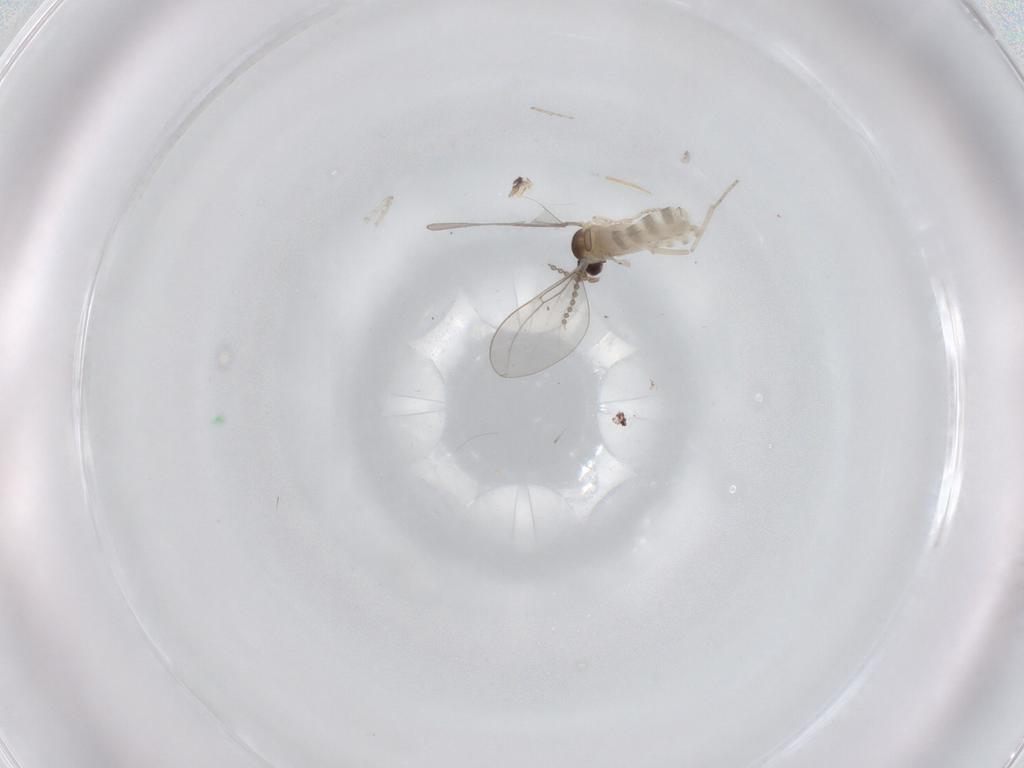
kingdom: Animalia
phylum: Arthropoda
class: Insecta
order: Diptera
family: Cecidomyiidae
